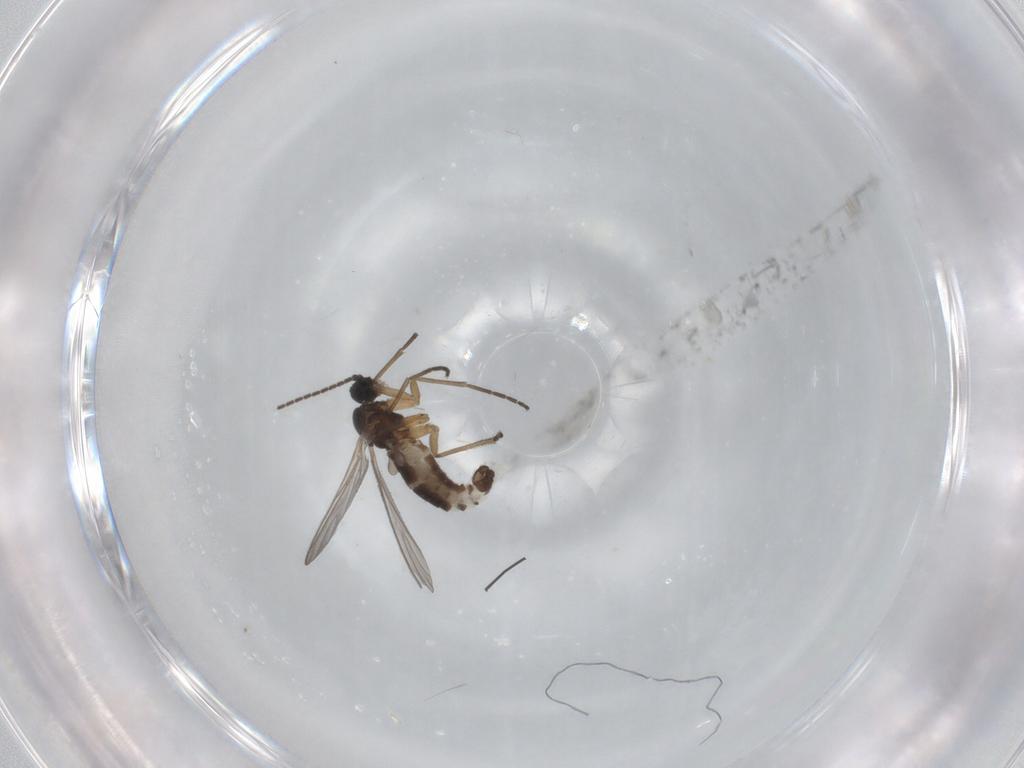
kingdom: Animalia
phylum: Arthropoda
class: Insecta
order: Diptera
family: Sciaridae
